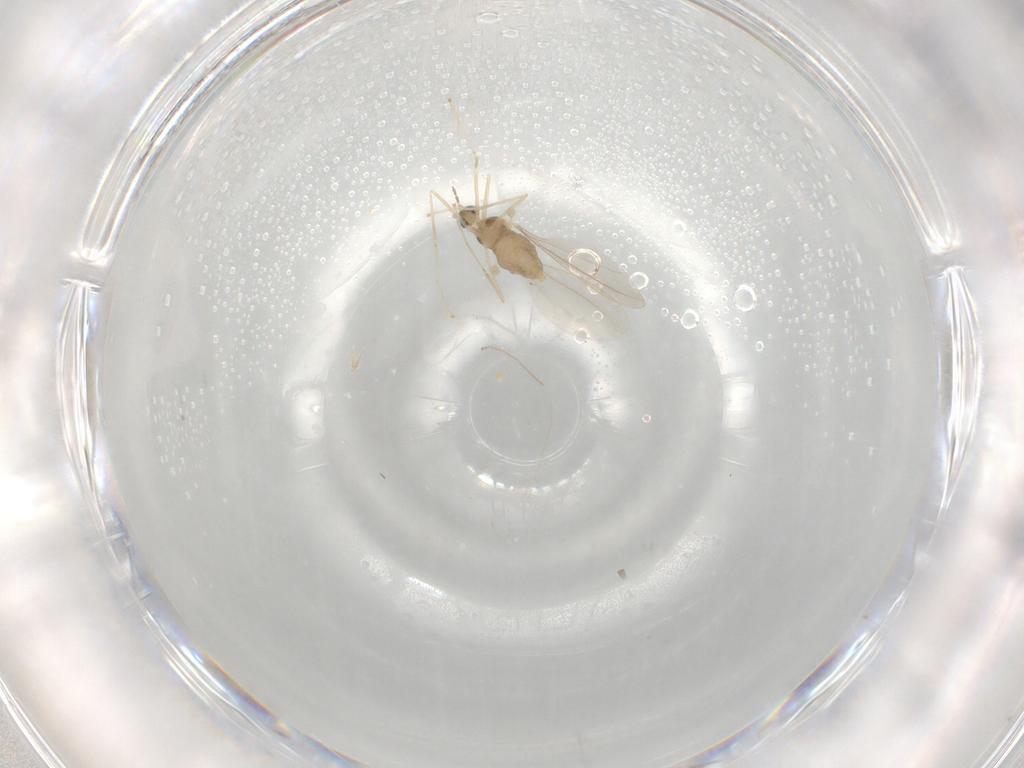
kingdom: Animalia
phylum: Arthropoda
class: Insecta
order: Diptera
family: Cecidomyiidae
